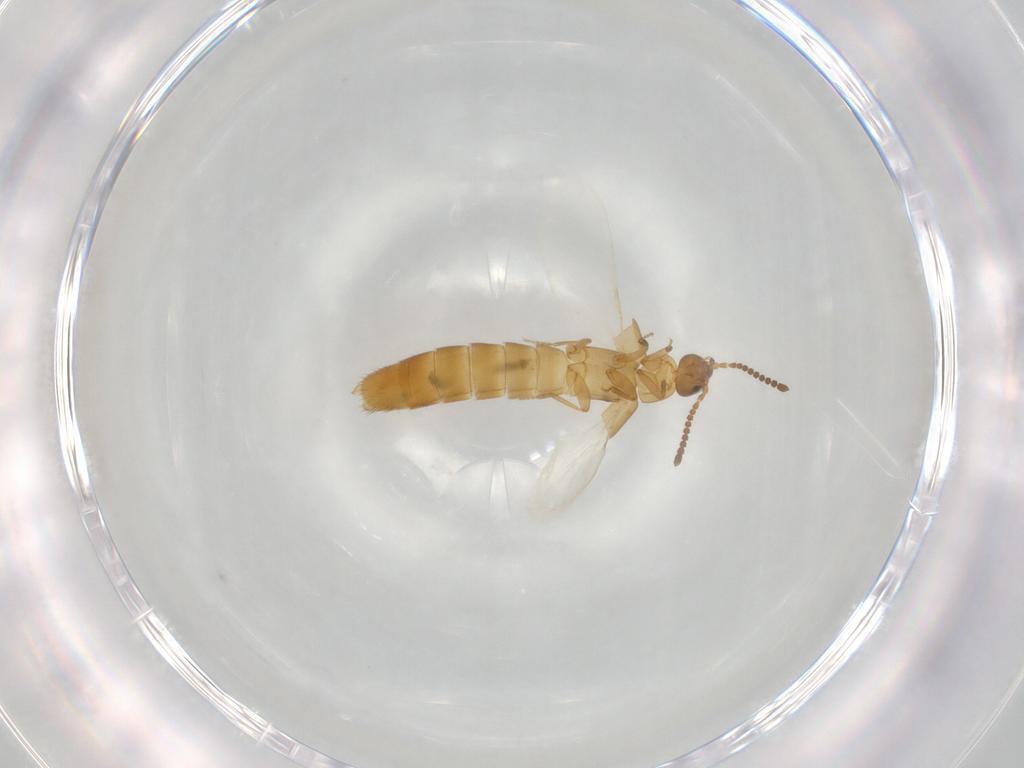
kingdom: Animalia
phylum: Arthropoda
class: Insecta
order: Coleoptera
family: Staphylinidae
